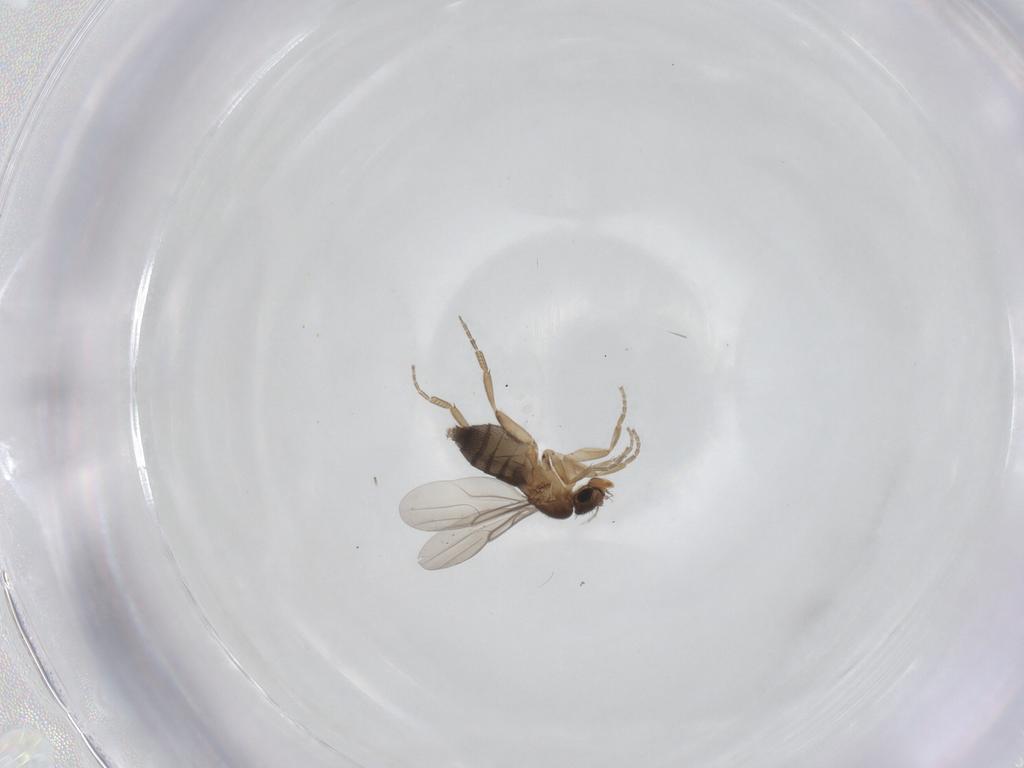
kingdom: Animalia
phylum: Arthropoda
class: Insecta
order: Diptera
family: Phoridae
